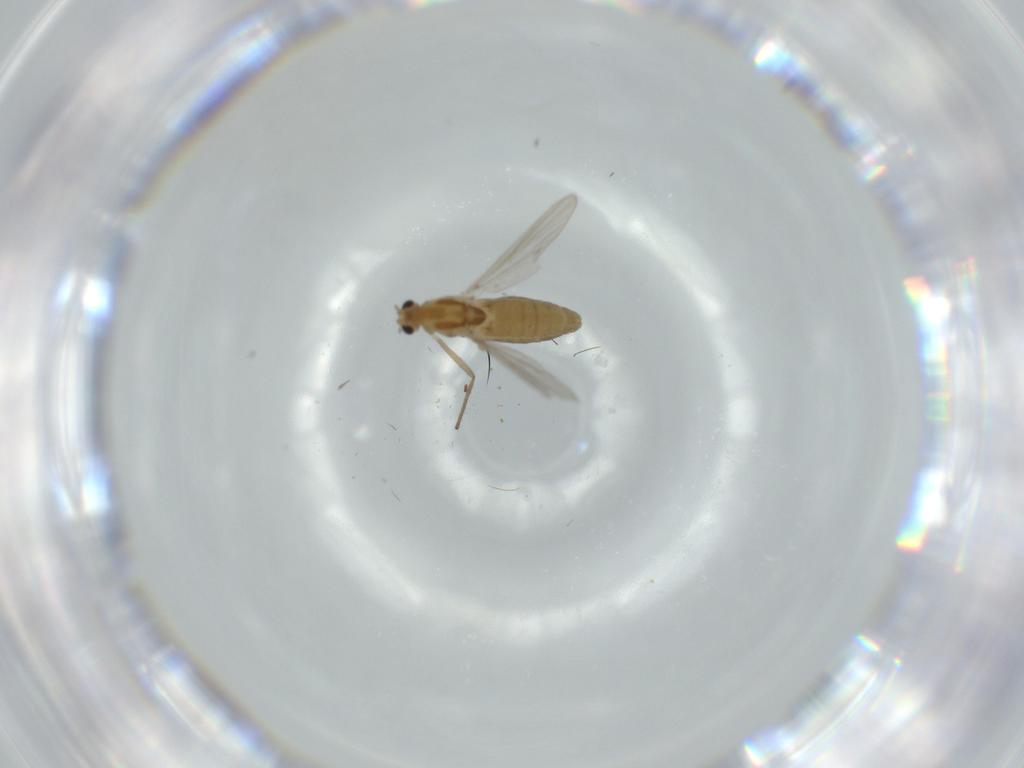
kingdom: Animalia
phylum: Arthropoda
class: Insecta
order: Diptera
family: Chironomidae
